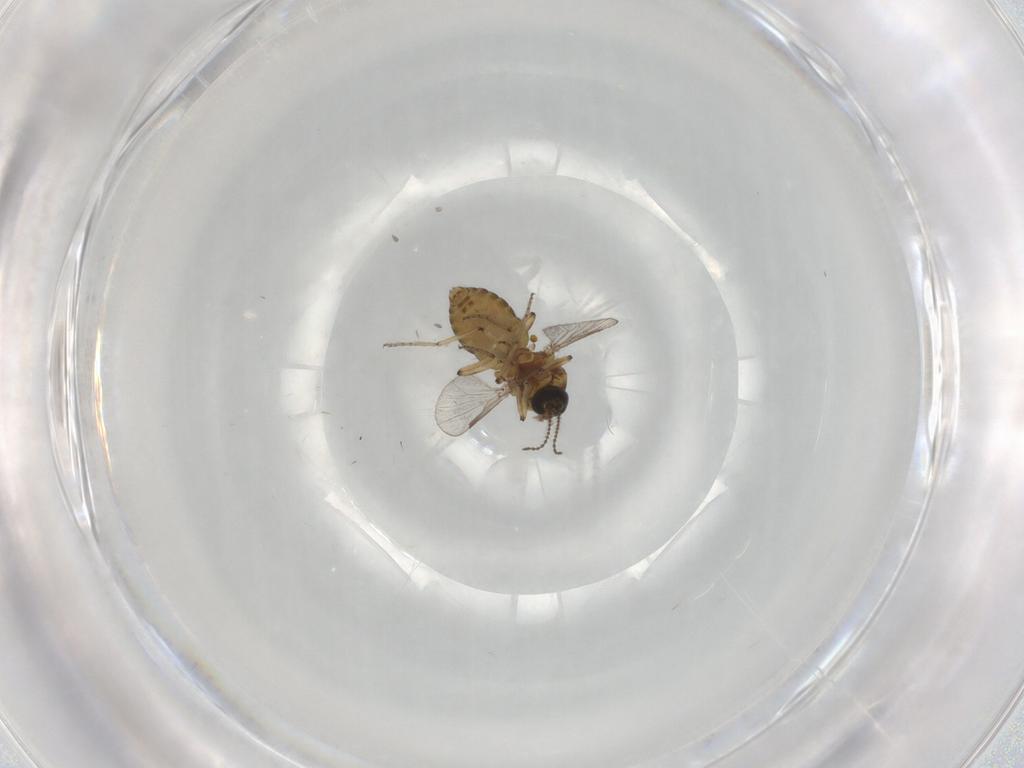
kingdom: Animalia
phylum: Arthropoda
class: Insecta
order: Diptera
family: Ceratopogonidae
